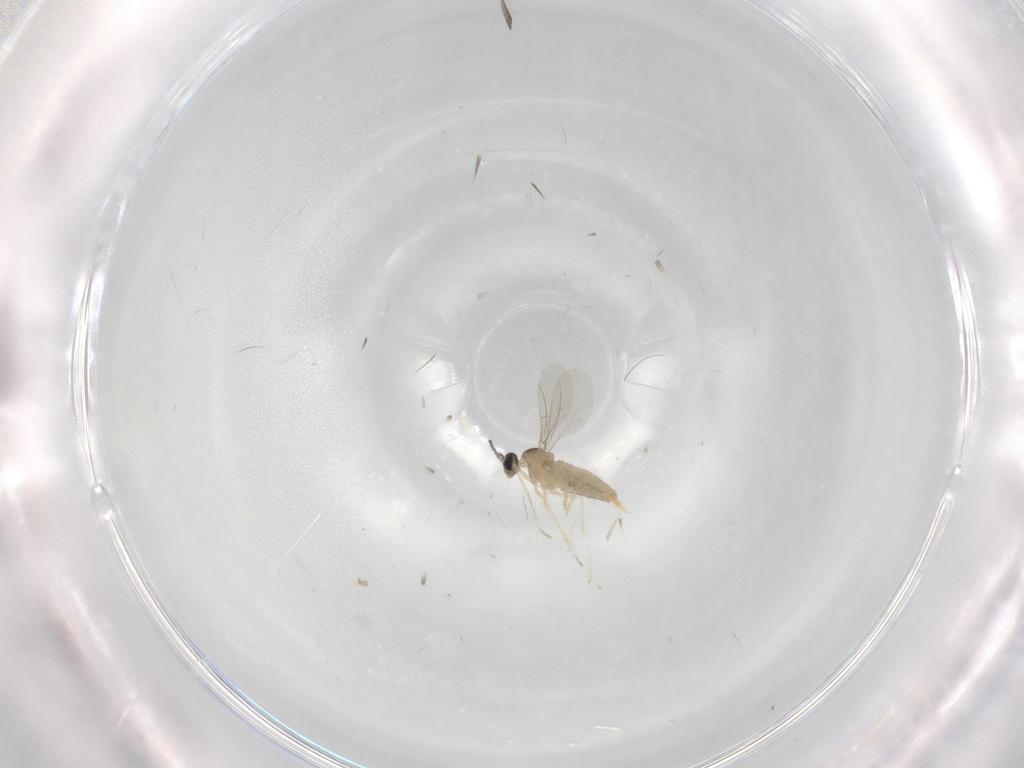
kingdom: Animalia
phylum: Arthropoda
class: Insecta
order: Diptera
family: Cecidomyiidae
